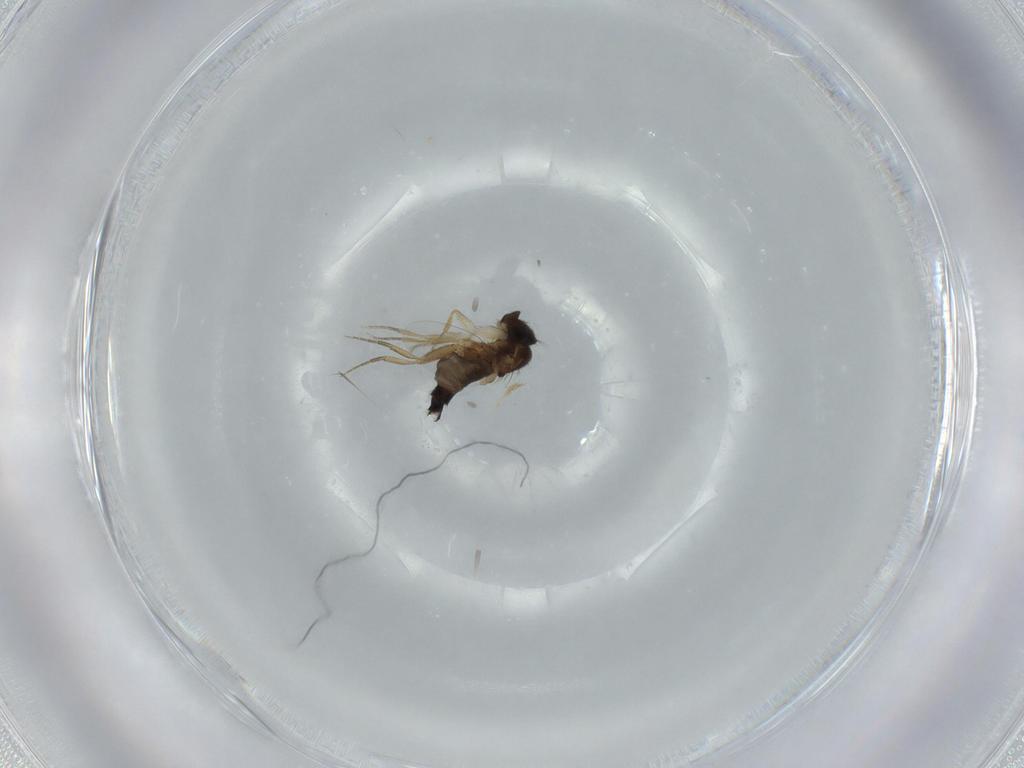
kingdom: Animalia
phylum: Arthropoda
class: Insecta
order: Diptera
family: Phoridae
